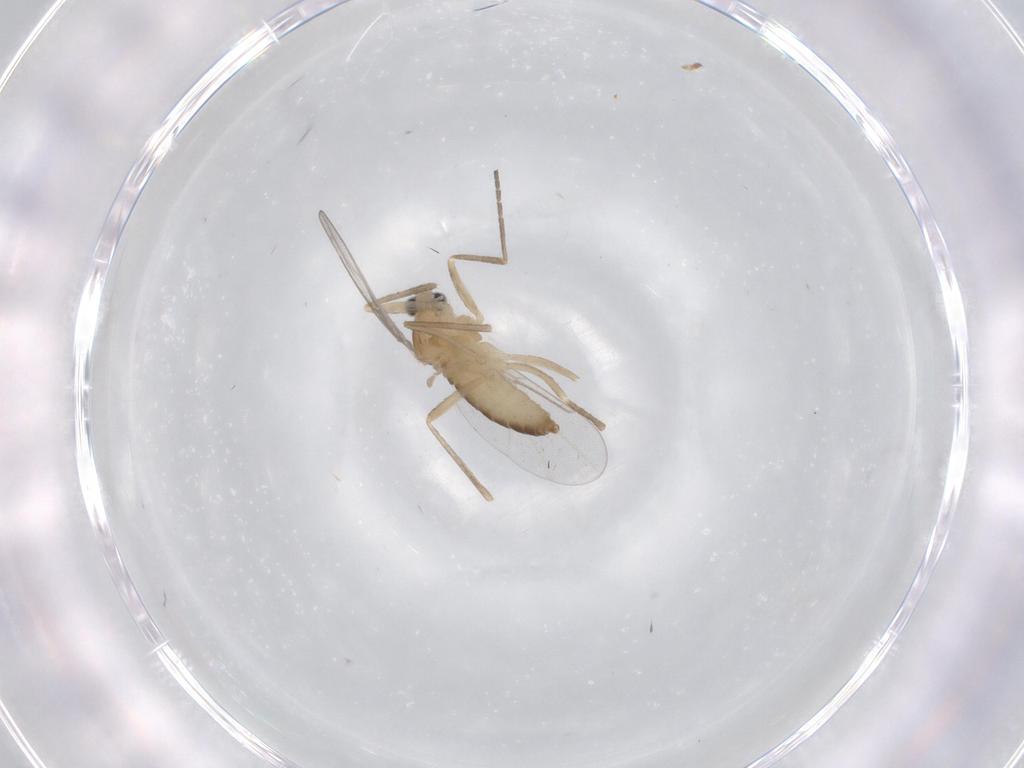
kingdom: Animalia
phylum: Arthropoda
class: Insecta
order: Diptera
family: Cecidomyiidae
